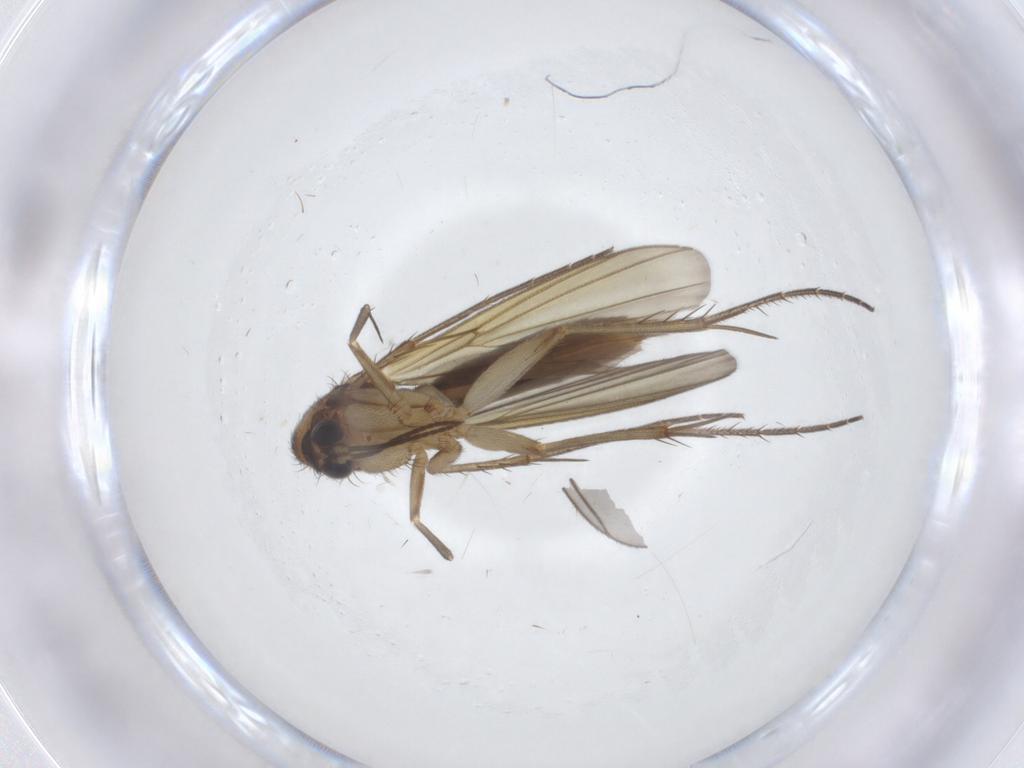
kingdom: Animalia
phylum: Arthropoda
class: Insecta
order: Diptera
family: Mycetophilidae
